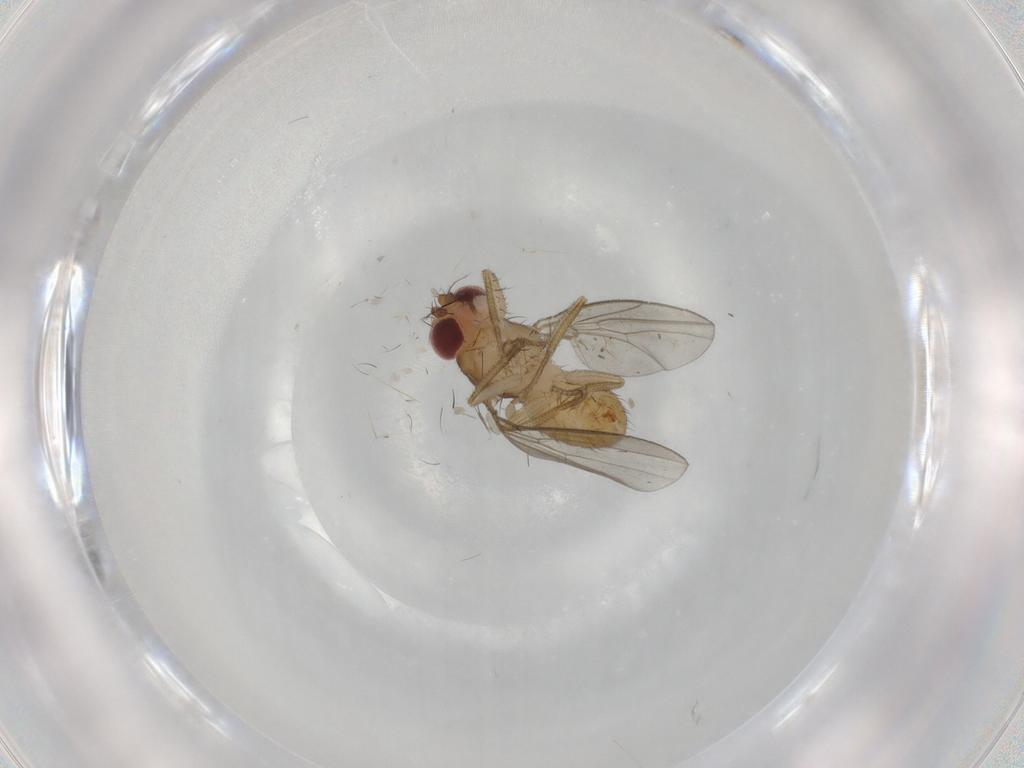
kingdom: Animalia
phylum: Arthropoda
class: Insecta
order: Diptera
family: Drosophilidae
